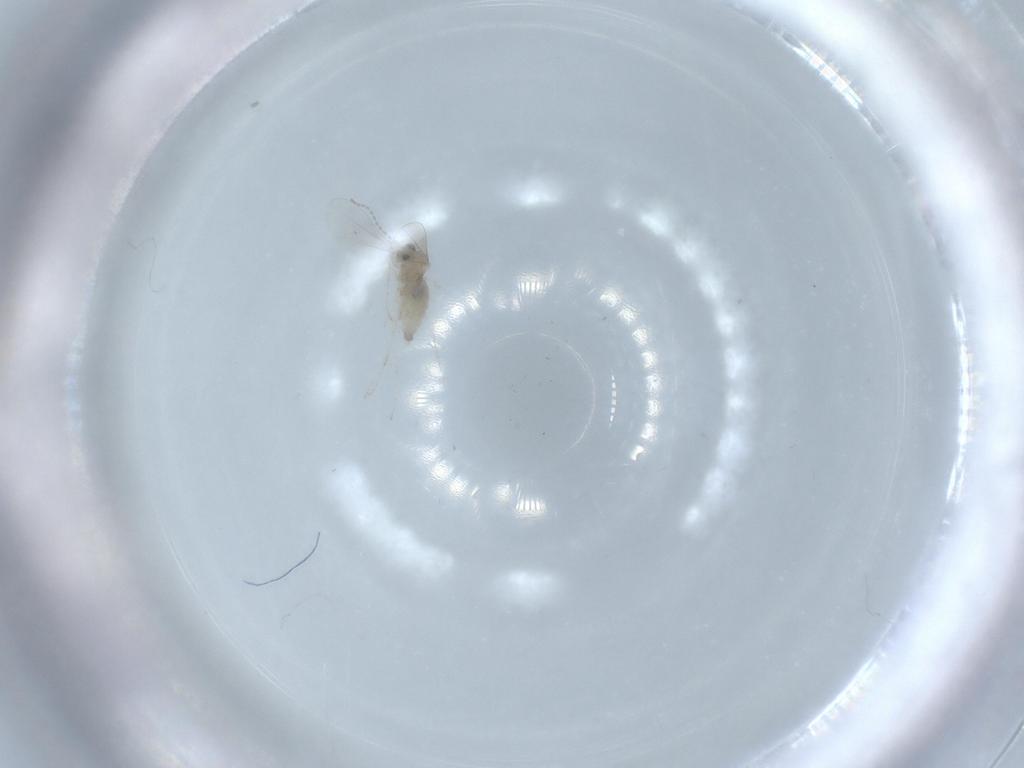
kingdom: Animalia
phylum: Arthropoda
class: Insecta
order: Diptera
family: Cecidomyiidae
